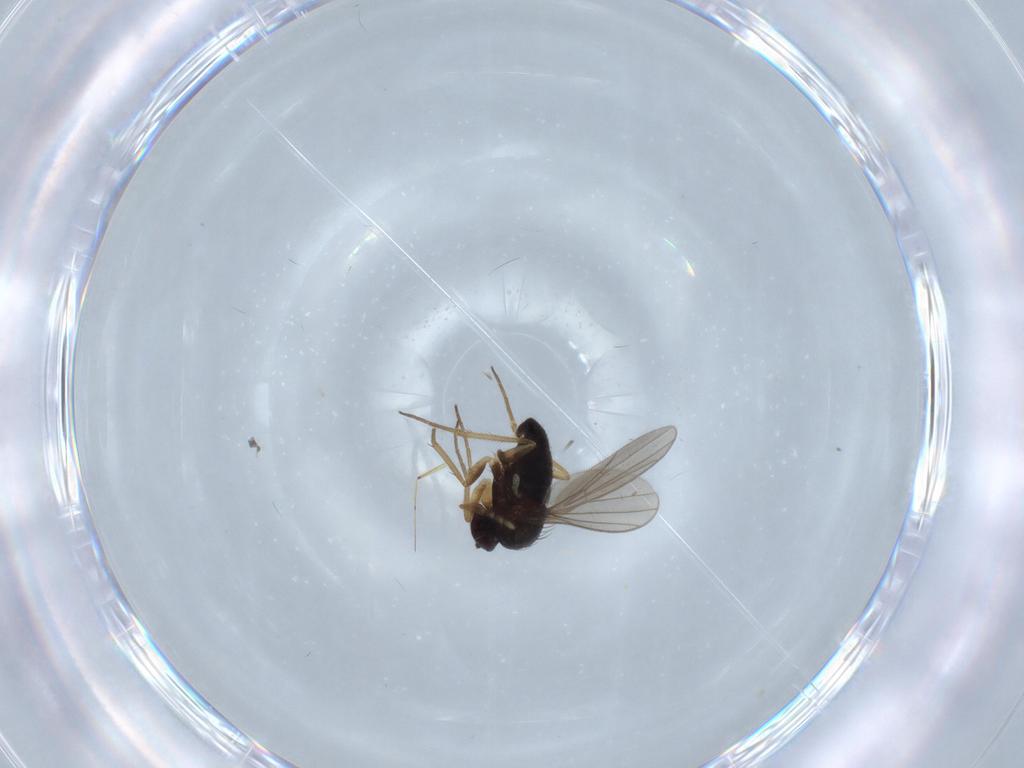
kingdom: Animalia
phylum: Arthropoda
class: Insecta
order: Diptera
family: Dolichopodidae
